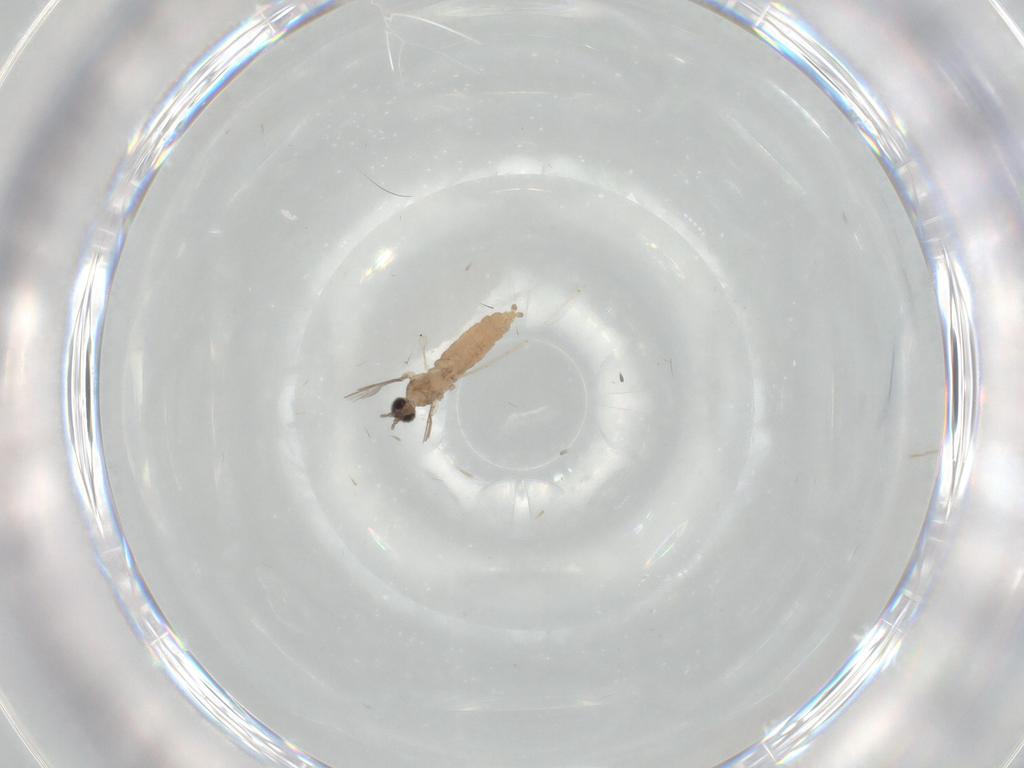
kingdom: Animalia
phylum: Arthropoda
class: Insecta
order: Diptera
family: Cecidomyiidae
